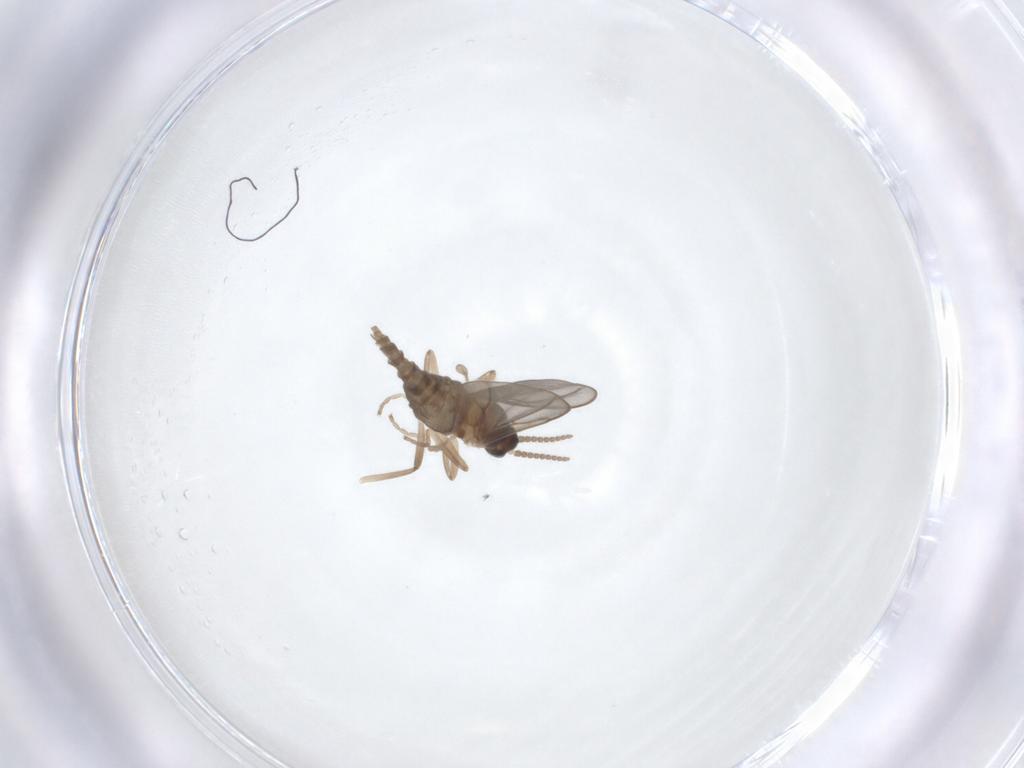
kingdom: Animalia
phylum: Arthropoda
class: Insecta
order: Diptera
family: Cecidomyiidae
